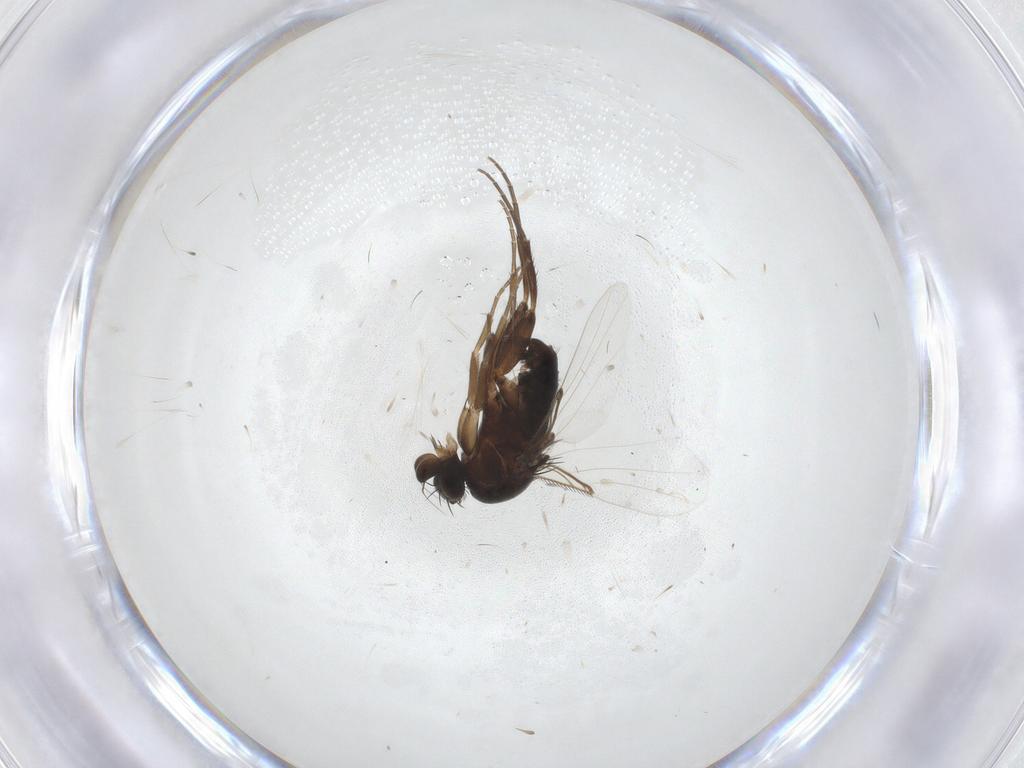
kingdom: Animalia
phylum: Arthropoda
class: Insecta
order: Diptera
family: Phoridae
